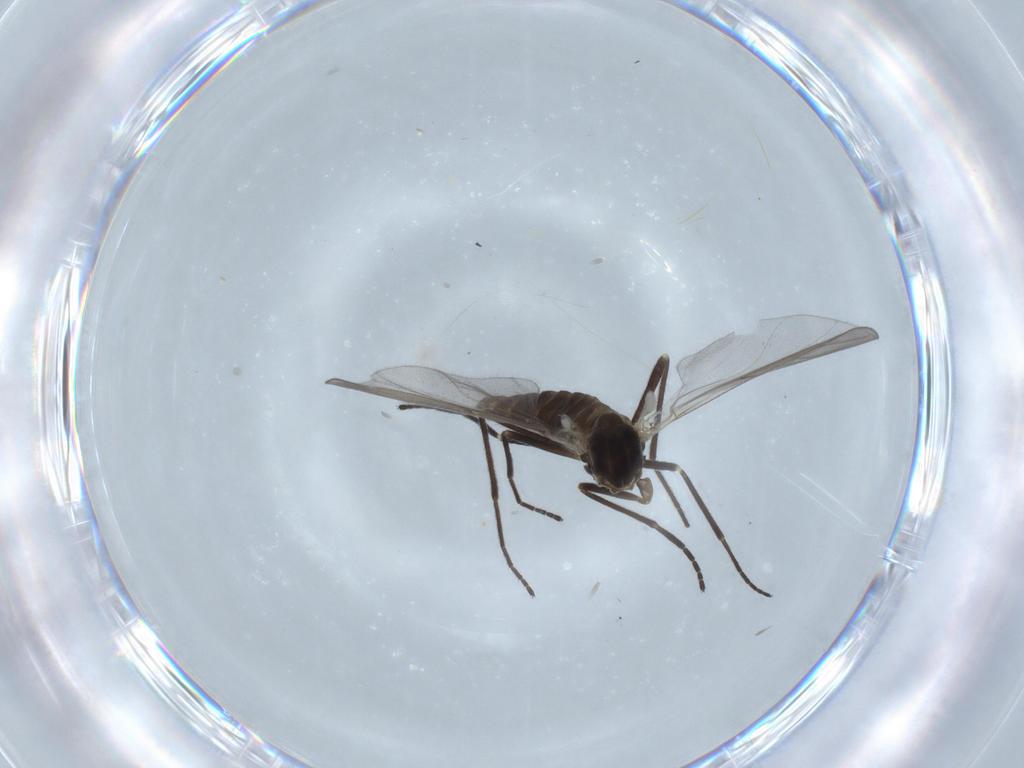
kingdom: Animalia
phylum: Arthropoda
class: Insecta
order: Diptera
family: Cecidomyiidae
